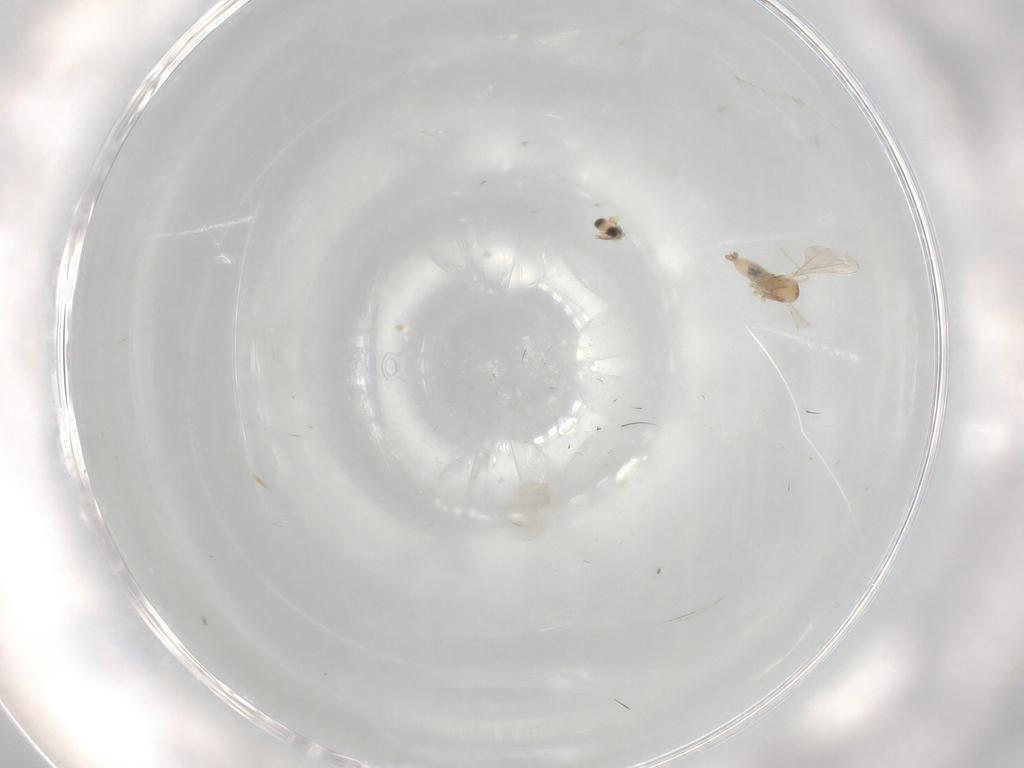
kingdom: Animalia
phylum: Arthropoda
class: Insecta
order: Diptera
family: Cecidomyiidae
